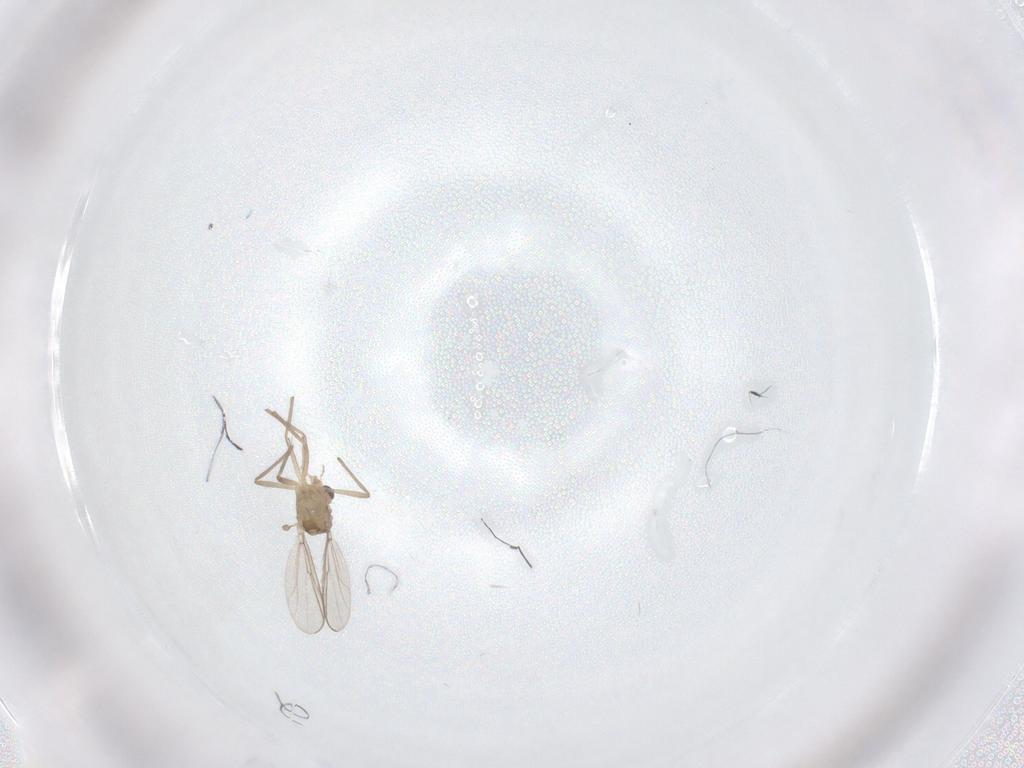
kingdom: Animalia
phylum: Arthropoda
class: Insecta
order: Diptera
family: Chironomidae
